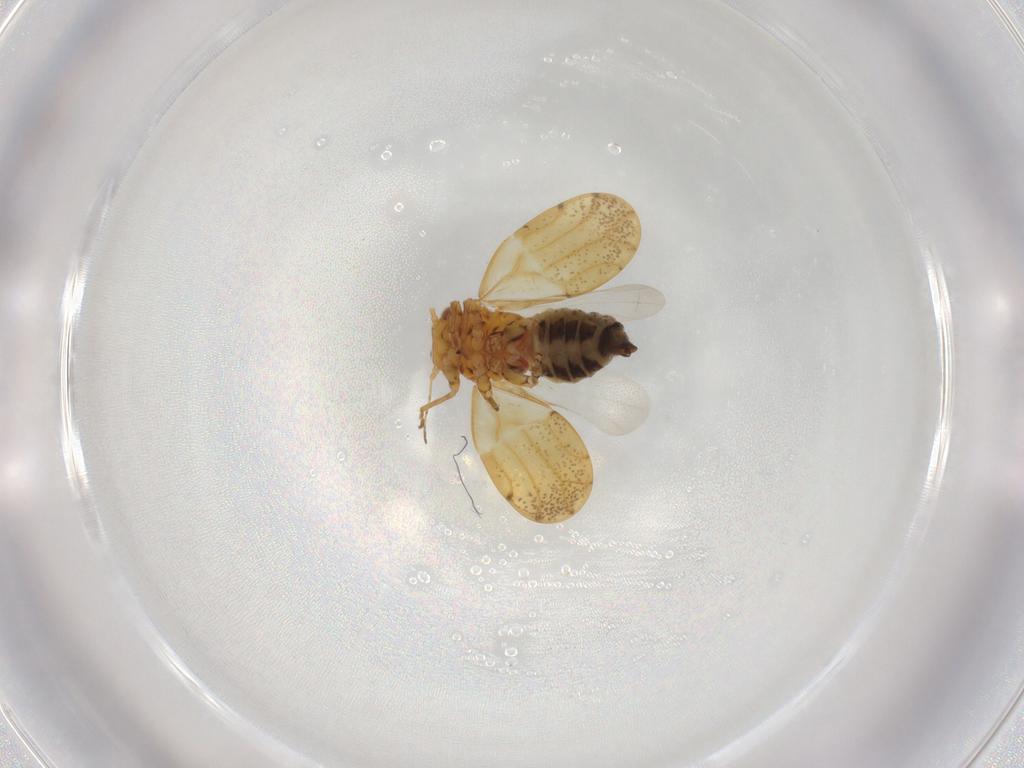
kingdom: Animalia
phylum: Arthropoda
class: Insecta
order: Hemiptera
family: Liviidae
